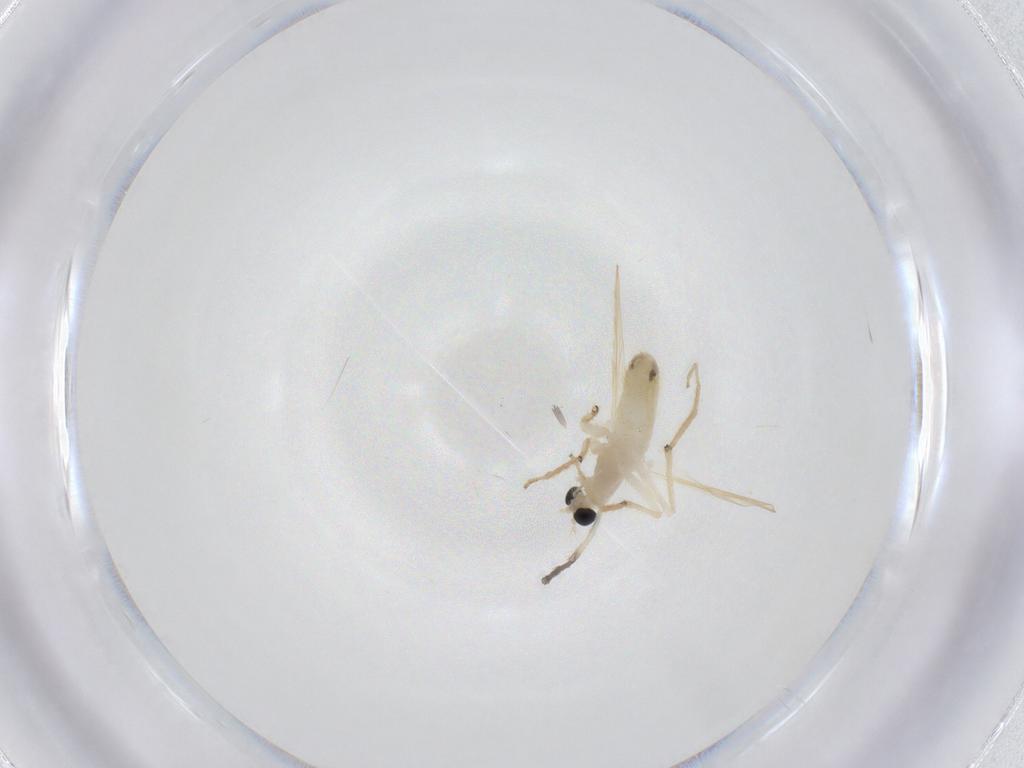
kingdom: Animalia
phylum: Arthropoda
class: Insecta
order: Diptera
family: Chironomidae
